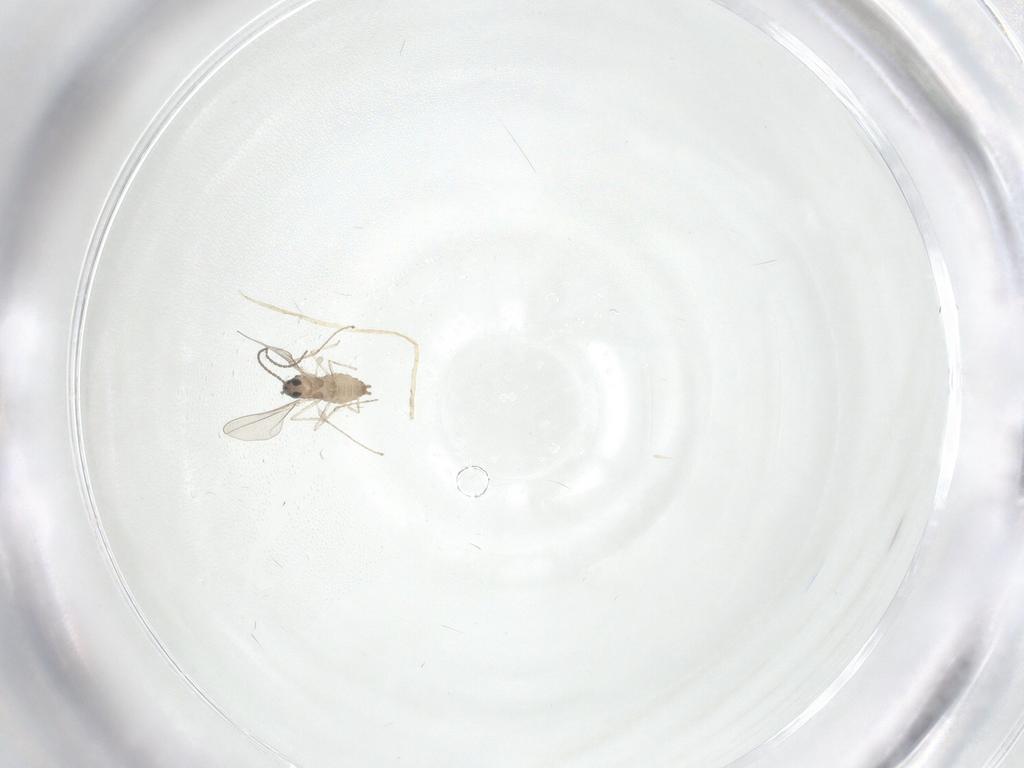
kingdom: Animalia
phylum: Arthropoda
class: Insecta
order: Diptera
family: Cecidomyiidae
